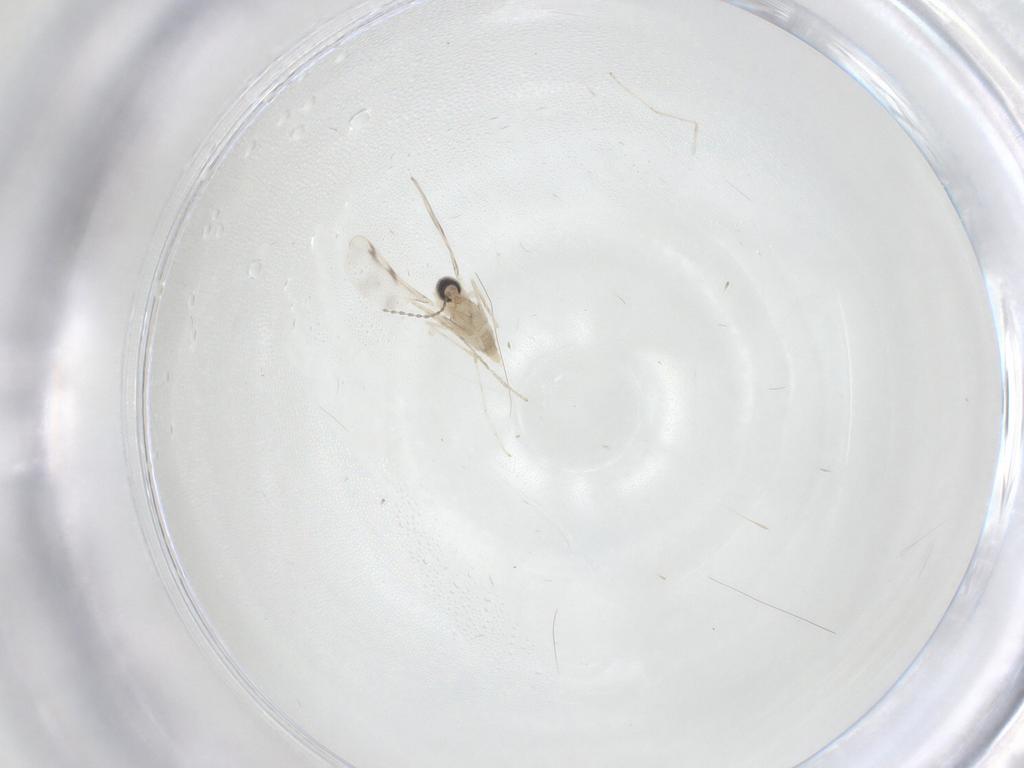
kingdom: Animalia
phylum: Arthropoda
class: Insecta
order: Diptera
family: Cecidomyiidae
